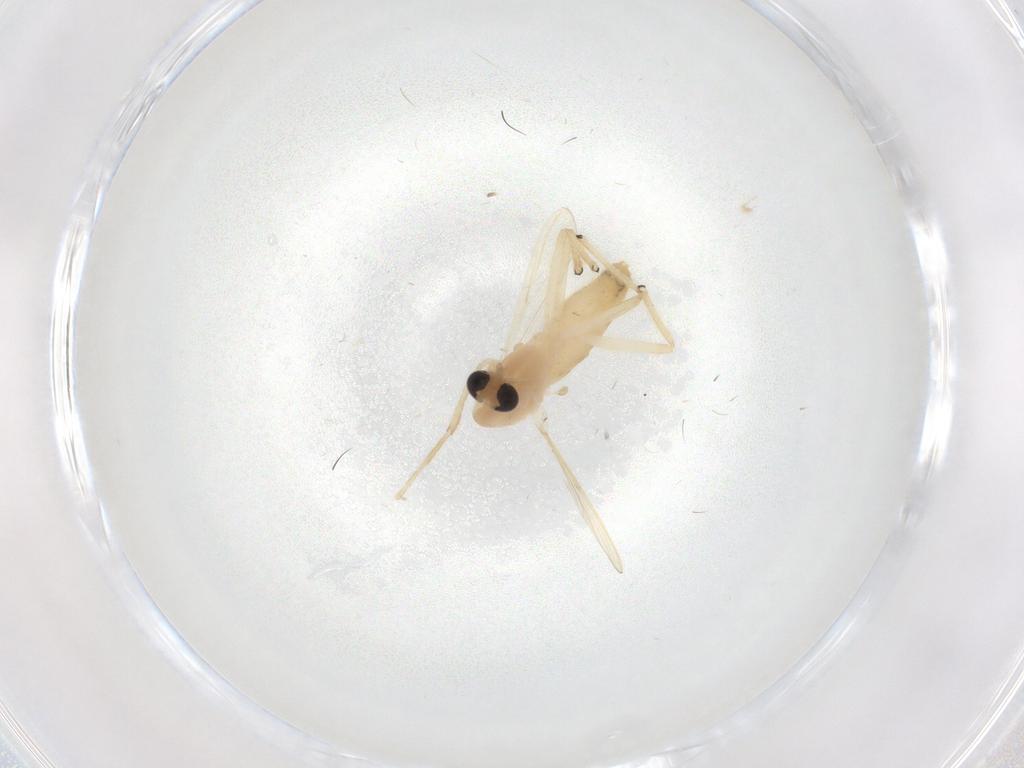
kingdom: Animalia
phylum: Arthropoda
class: Insecta
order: Diptera
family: Chironomidae
